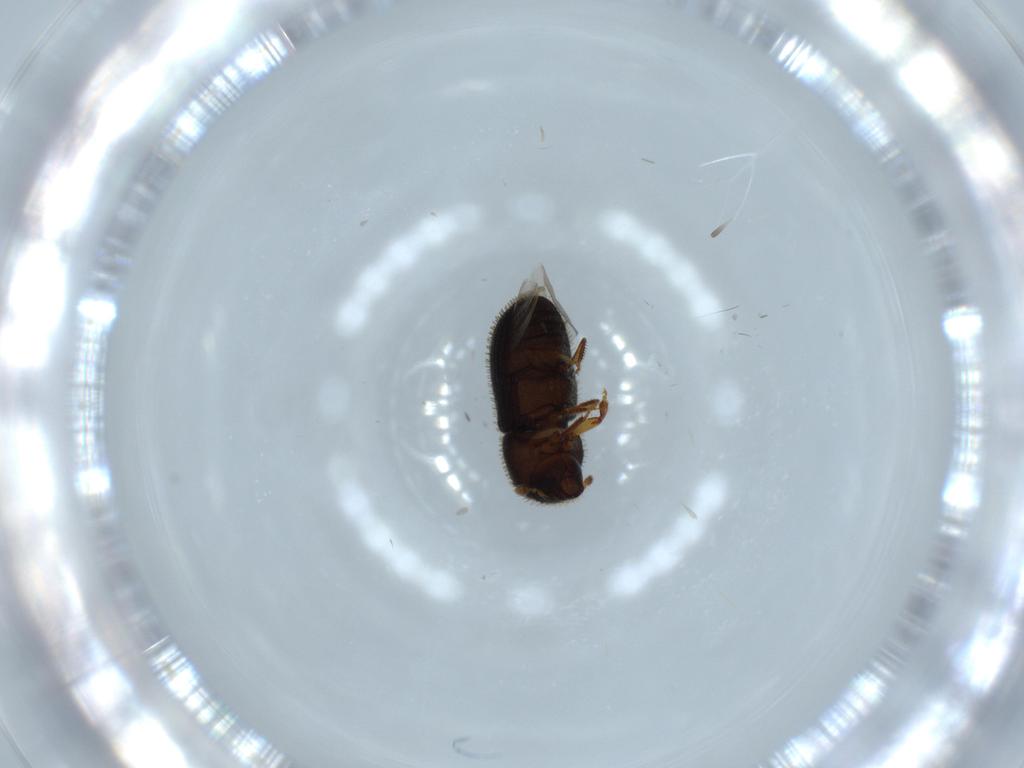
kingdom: Animalia
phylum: Arthropoda
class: Insecta
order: Coleoptera
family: Curculionidae
